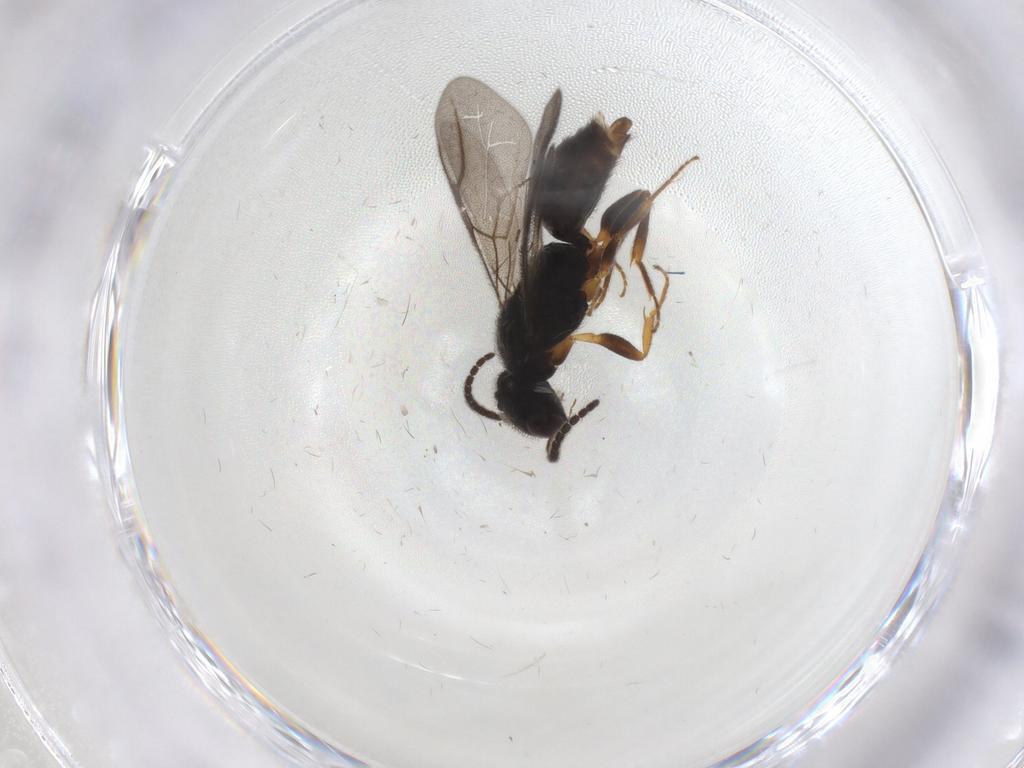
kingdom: Animalia
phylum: Arthropoda
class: Insecta
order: Hymenoptera
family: Bethylidae
